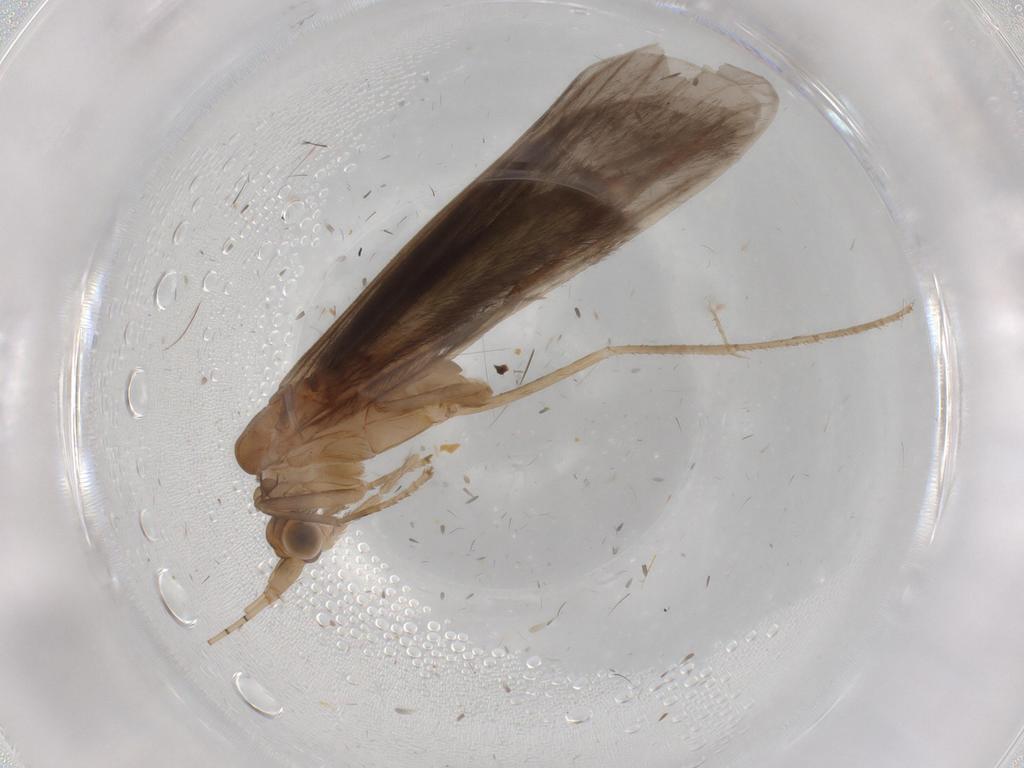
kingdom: Animalia
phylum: Arthropoda
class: Insecta
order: Trichoptera
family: Leptoceridae
